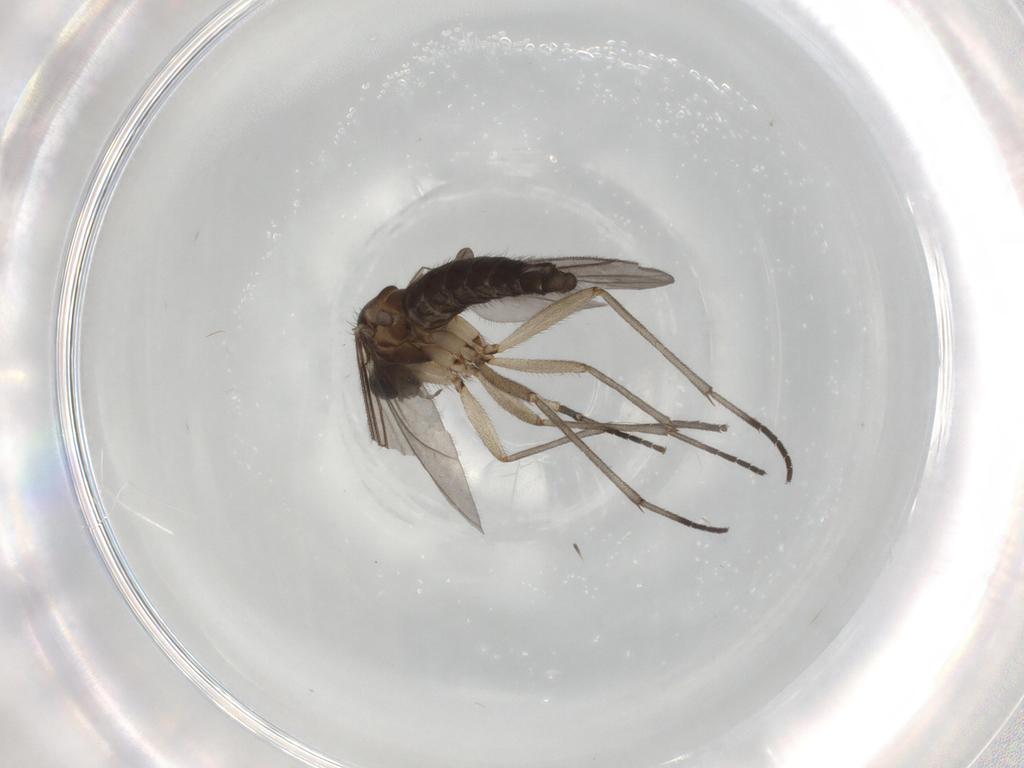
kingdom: Animalia
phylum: Arthropoda
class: Insecta
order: Diptera
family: Sciaridae
